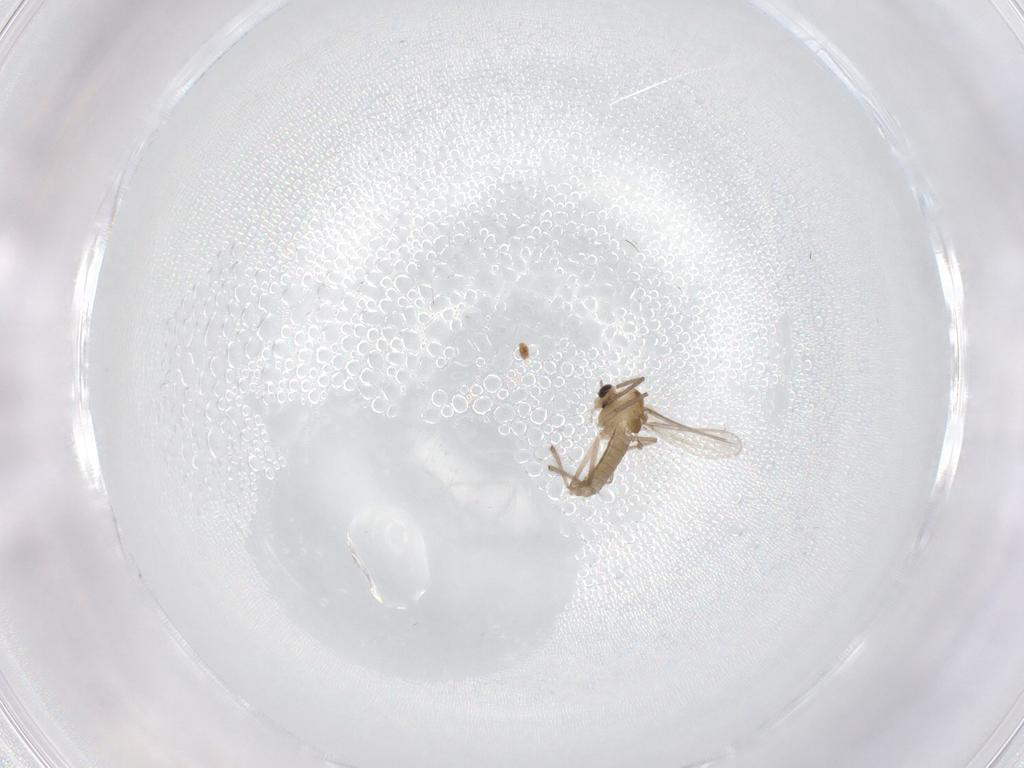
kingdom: Animalia
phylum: Arthropoda
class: Insecta
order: Diptera
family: Chironomidae
